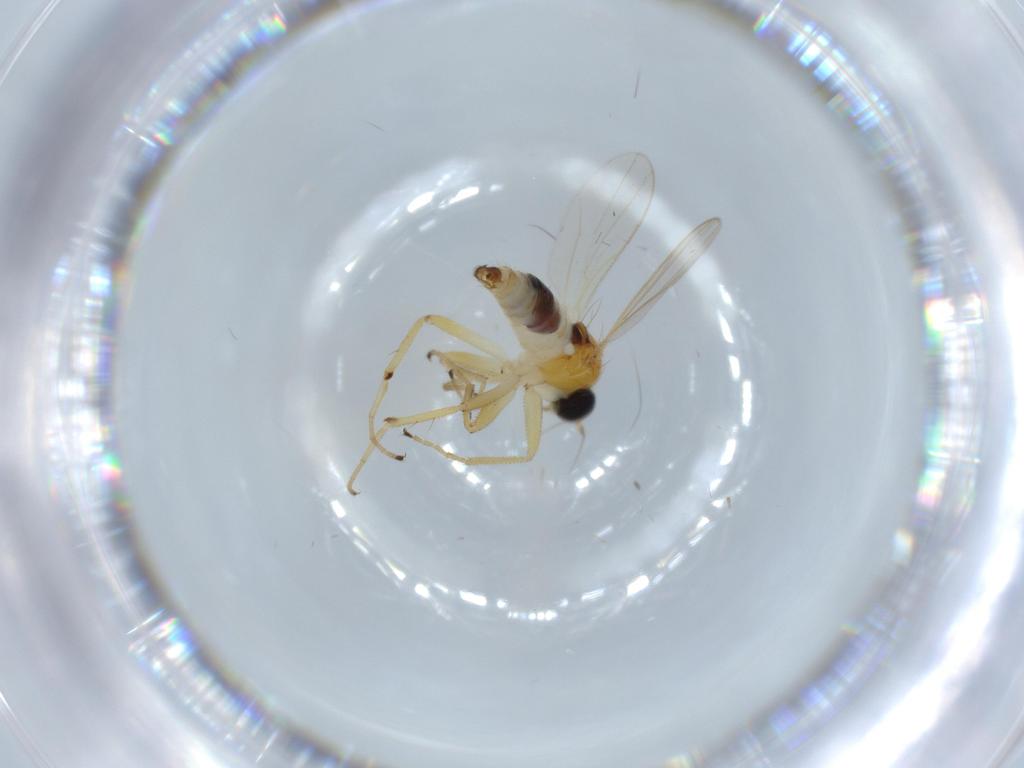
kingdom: Animalia
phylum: Arthropoda
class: Insecta
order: Diptera
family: Hybotidae
